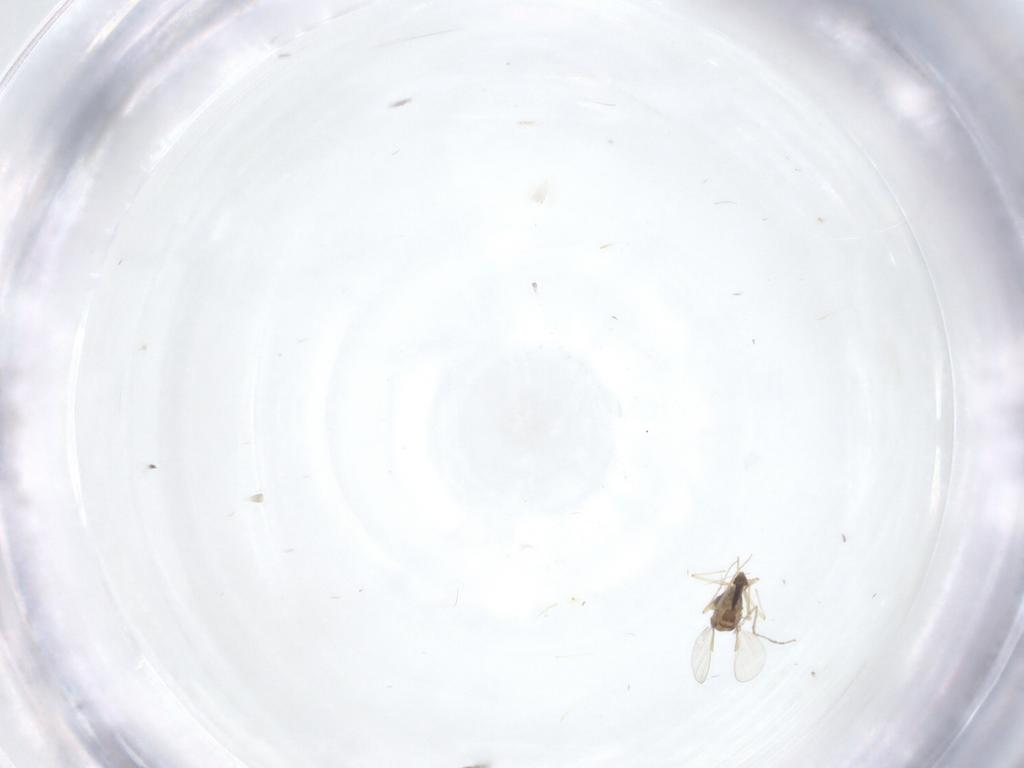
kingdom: Animalia
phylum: Arthropoda
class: Insecta
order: Diptera
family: Chironomidae
